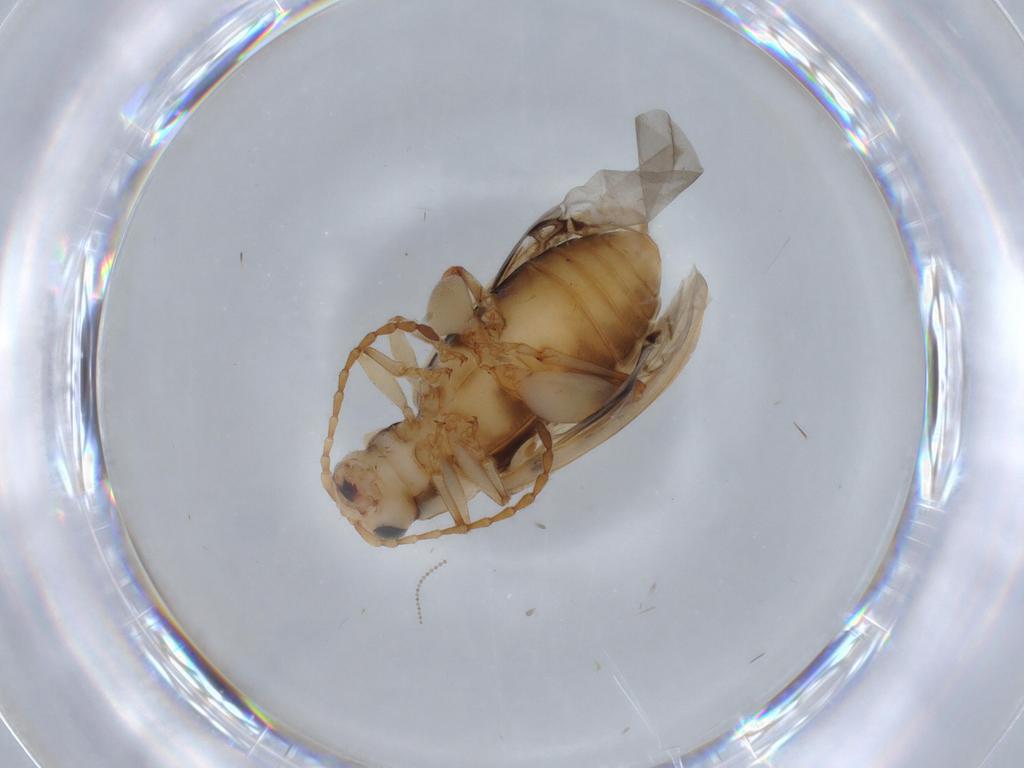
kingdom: Animalia
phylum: Arthropoda
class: Insecta
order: Coleoptera
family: Chrysomelidae
